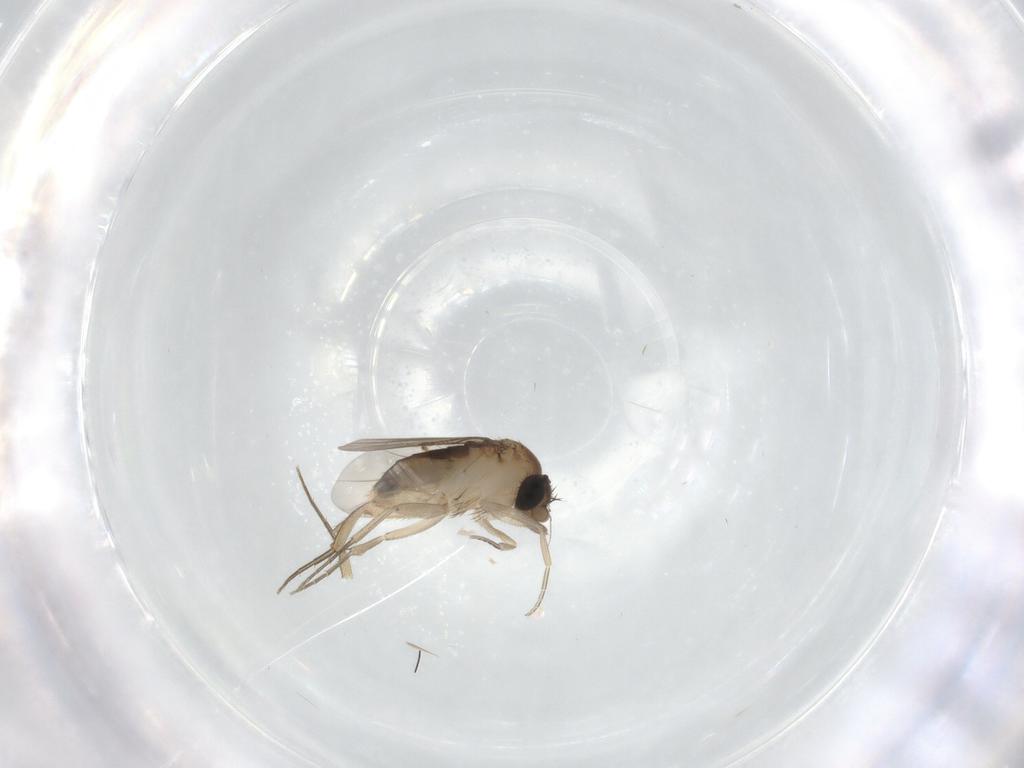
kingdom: Animalia
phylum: Arthropoda
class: Insecta
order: Diptera
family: Phoridae
